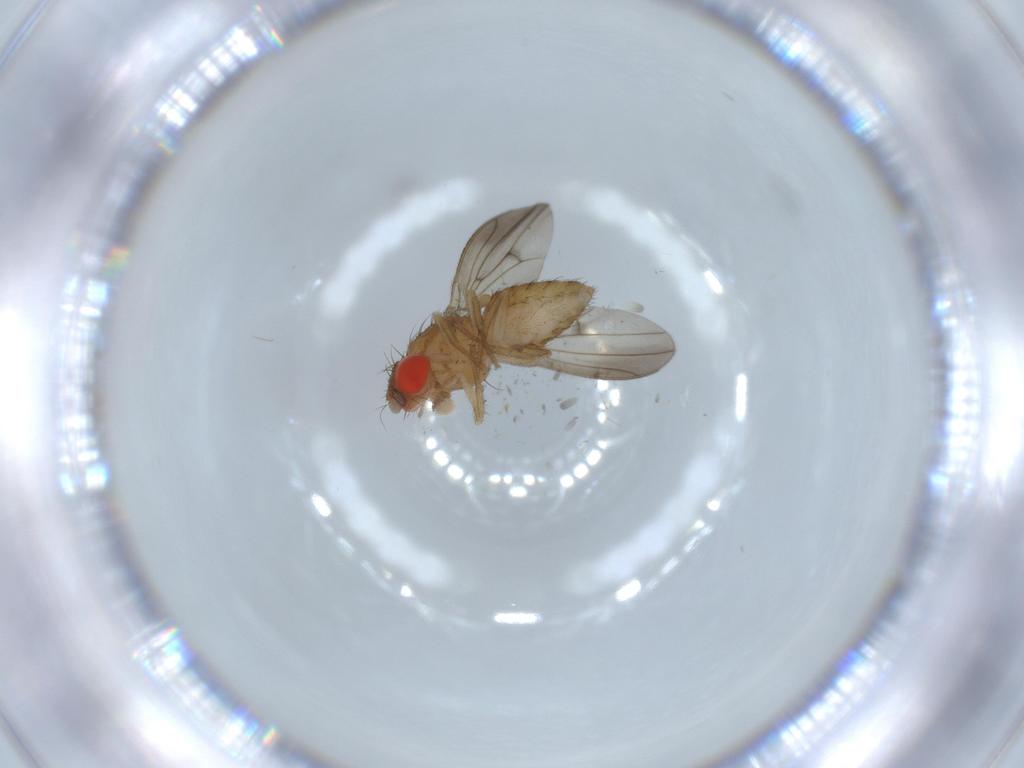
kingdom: Animalia
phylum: Arthropoda
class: Insecta
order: Diptera
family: Drosophilidae
